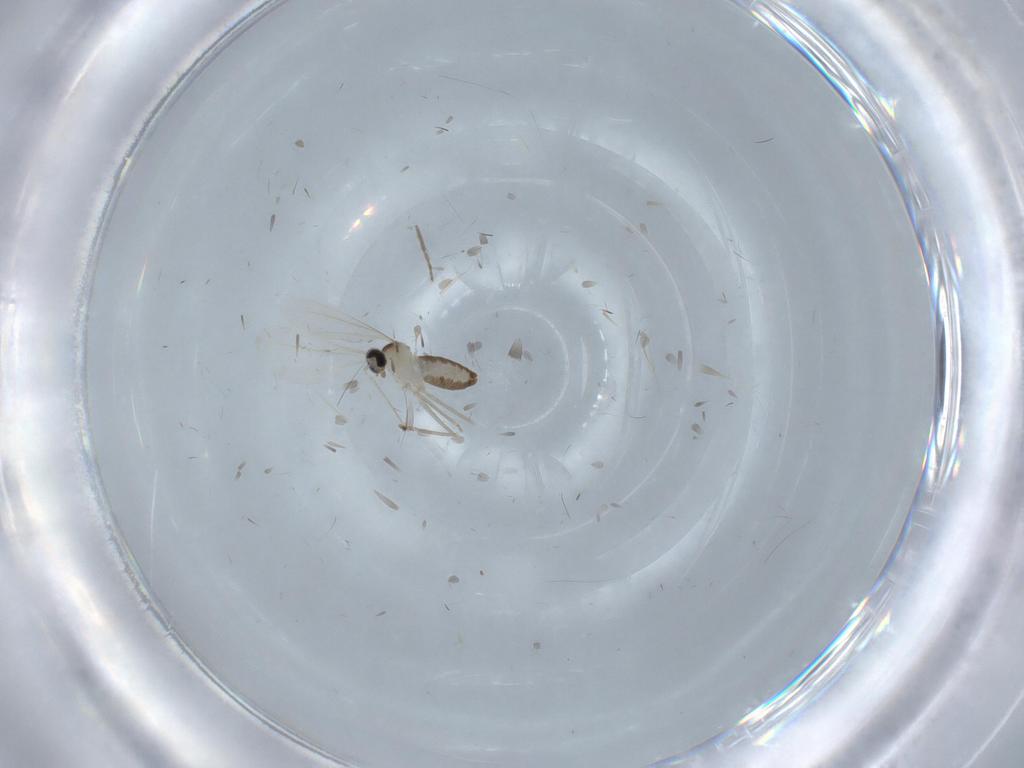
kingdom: Animalia
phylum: Arthropoda
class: Insecta
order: Diptera
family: Cecidomyiidae
